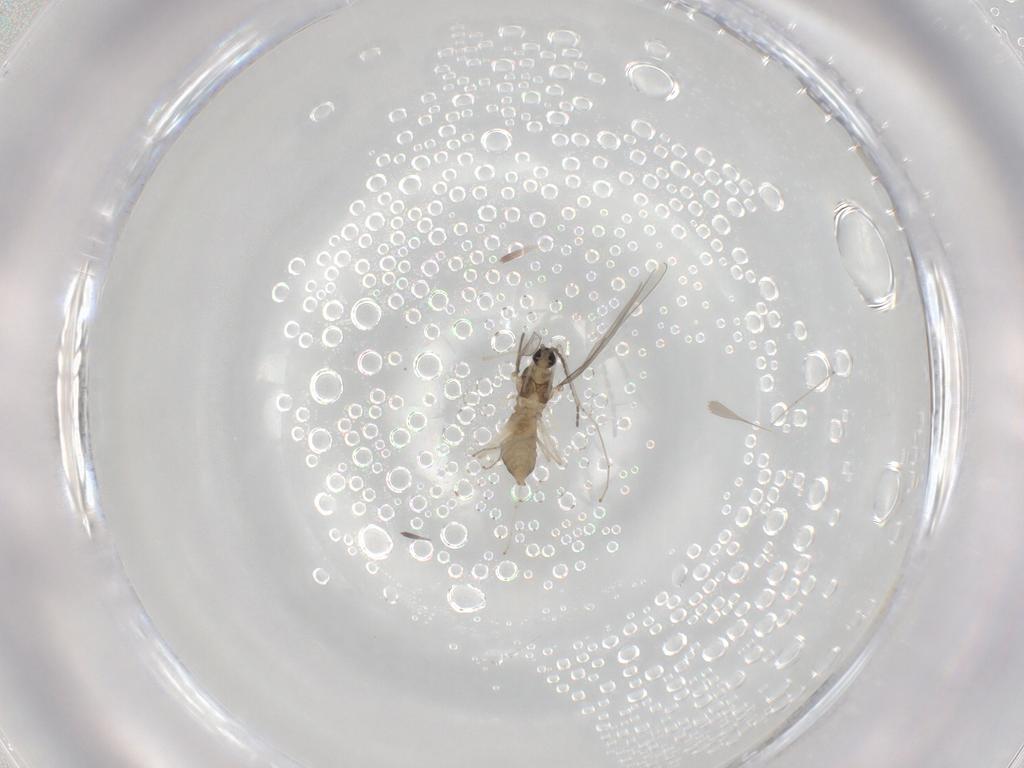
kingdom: Animalia
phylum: Arthropoda
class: Insecta
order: Diptera
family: Cecidomyiidae
